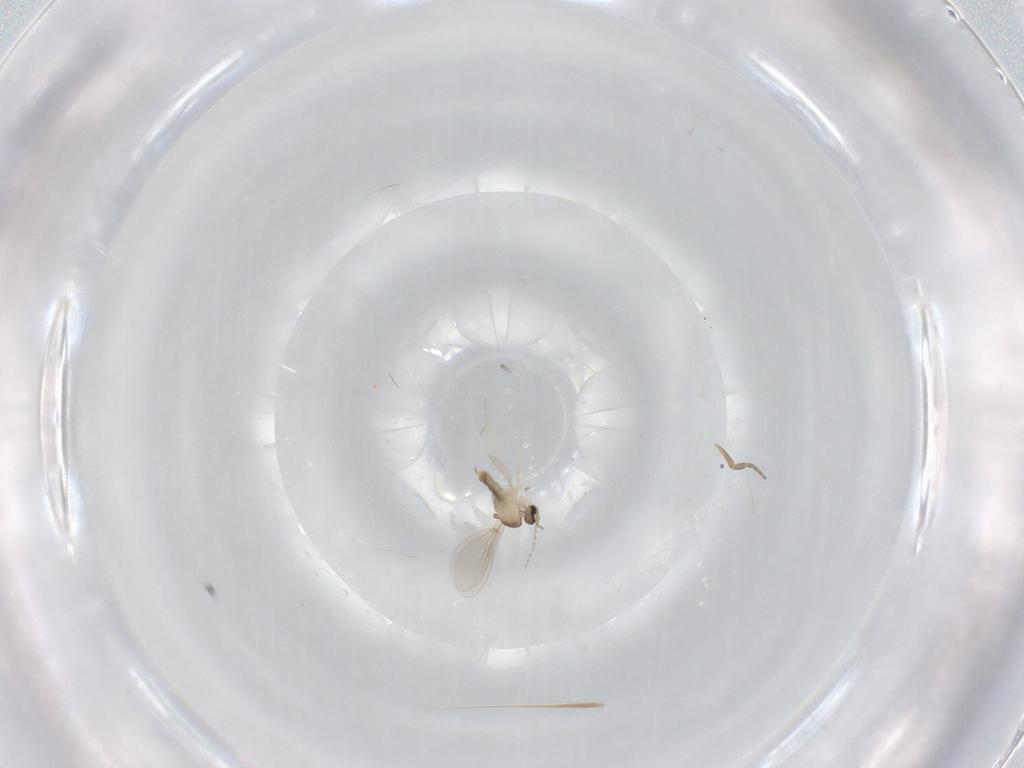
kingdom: Animalia
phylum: Arthropoda
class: Insecta
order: Diptera
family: Cecidomyiidae
